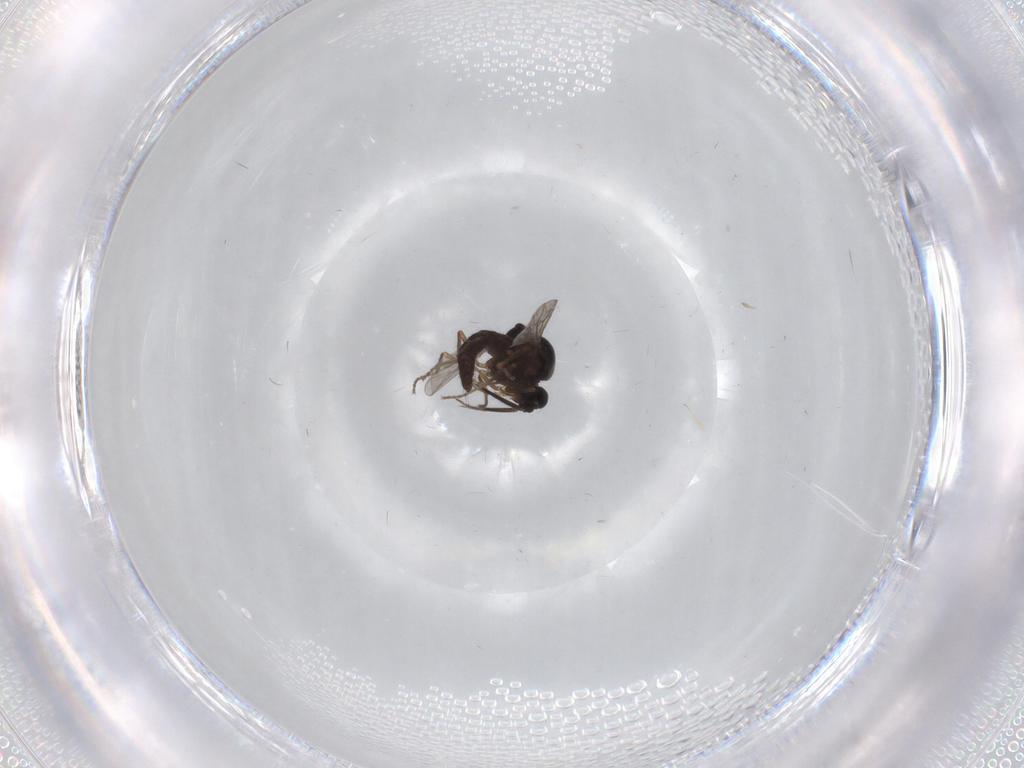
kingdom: Animalia
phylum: Arthropoda
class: Insecta
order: Diptera
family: Ceratopogonidae
